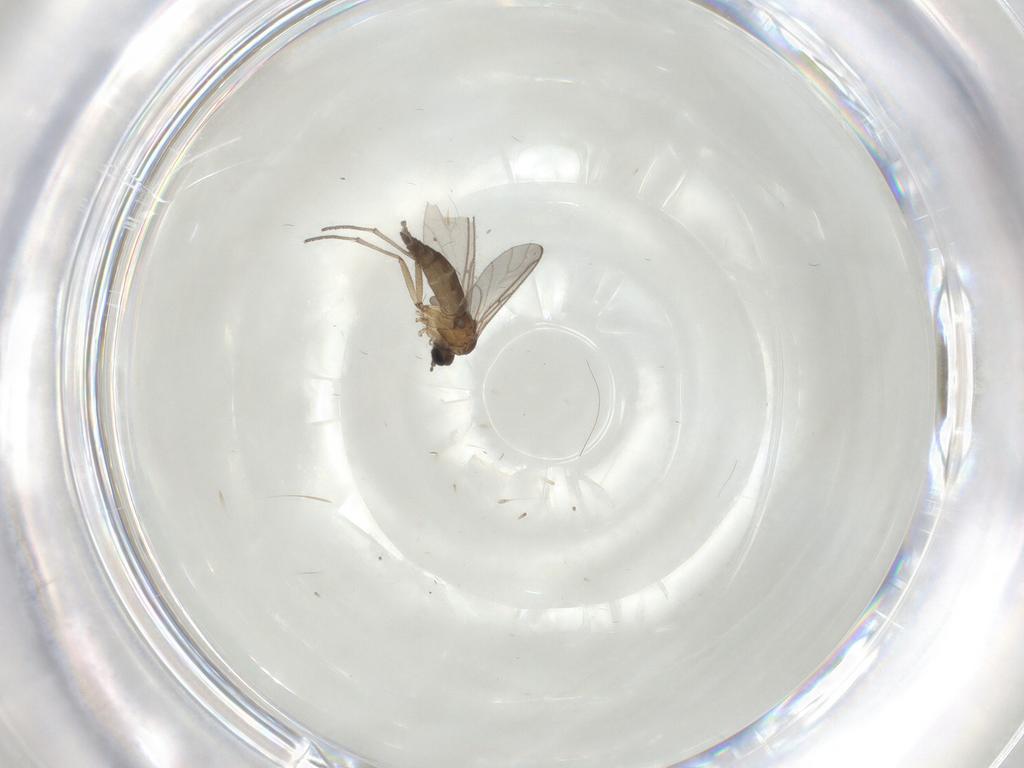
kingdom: Animalia
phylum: Arthropoda
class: Insecta
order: Diptera
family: Sciaridae
